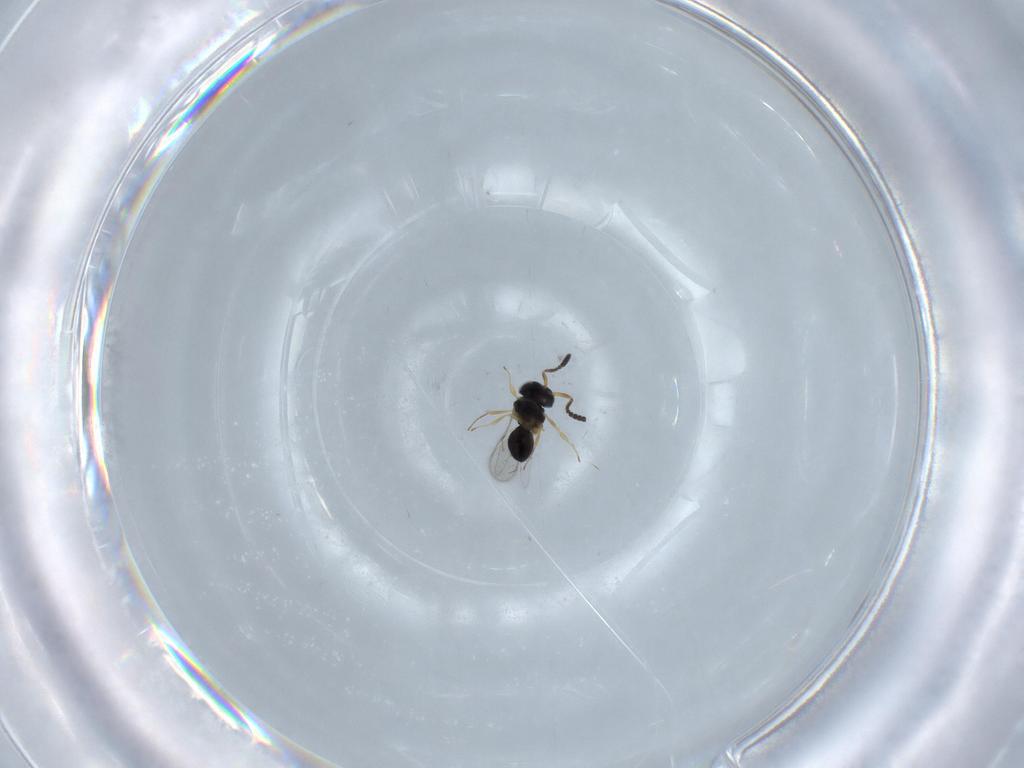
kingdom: Animalia
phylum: Arthropoda
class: Insecta
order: Hymenoptera
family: Scelionidae
